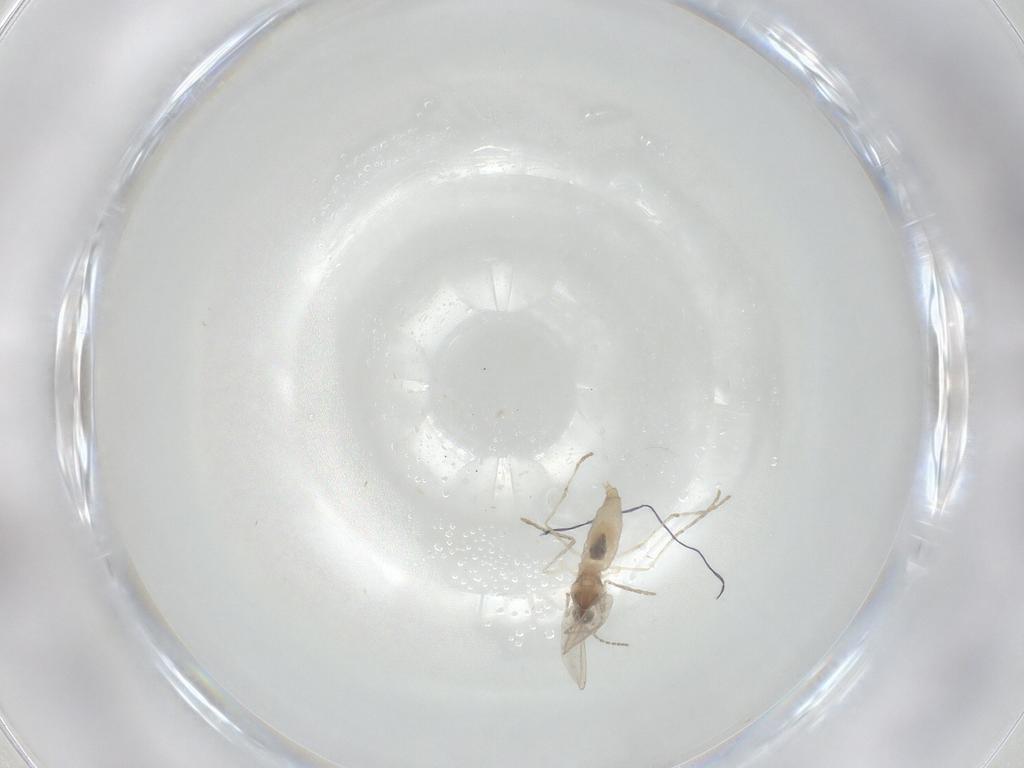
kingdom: Animalia
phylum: Arthropoda
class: Insecta
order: Diptera
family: Cecidomyiidae
